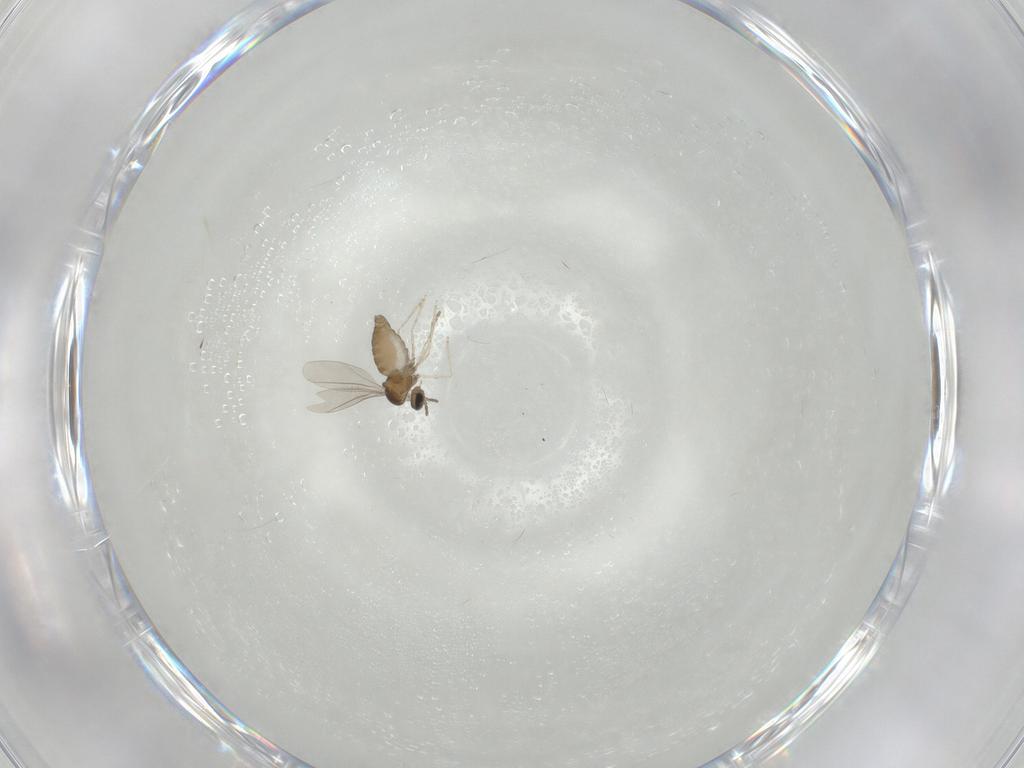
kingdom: Animalia
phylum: Arthropoda
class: Insecta
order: Diptera
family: Cecidomyiidae
